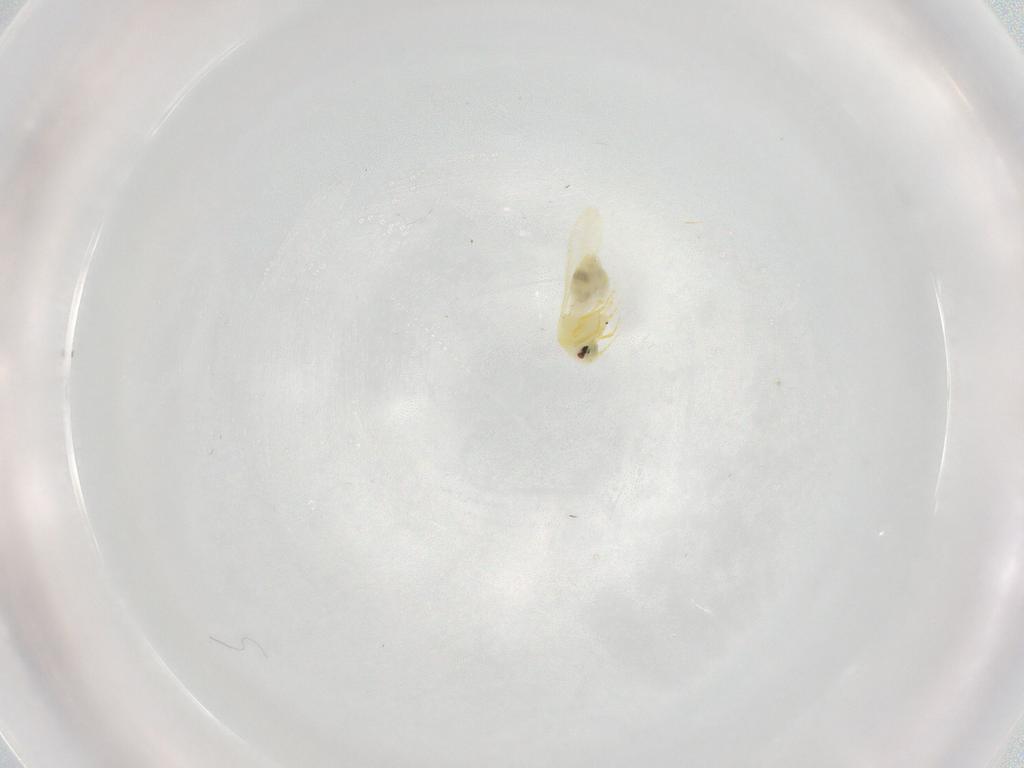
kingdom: Animalia
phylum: Arthropoda
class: Insecta
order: Hemiptera
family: Aleyrodidae
